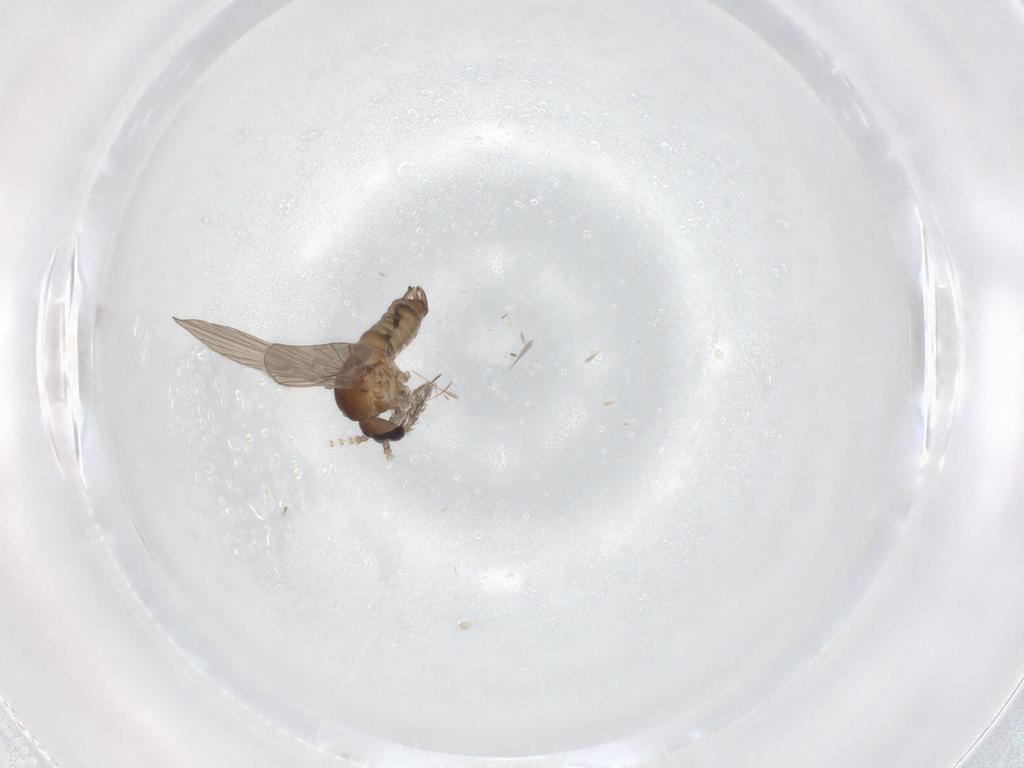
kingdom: Animalia
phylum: Arthropoda
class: Insecta
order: Diptera
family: Psychodidae
